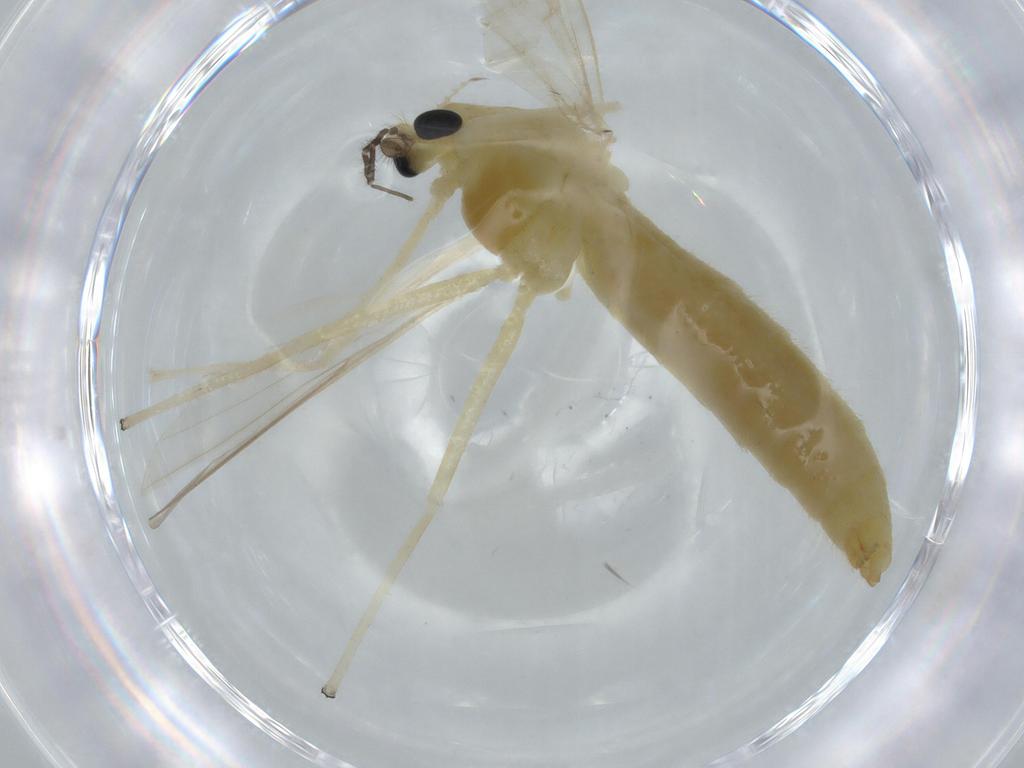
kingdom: Animalia
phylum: Arthropoda
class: Insecta
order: Diptera
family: Chironomidae
